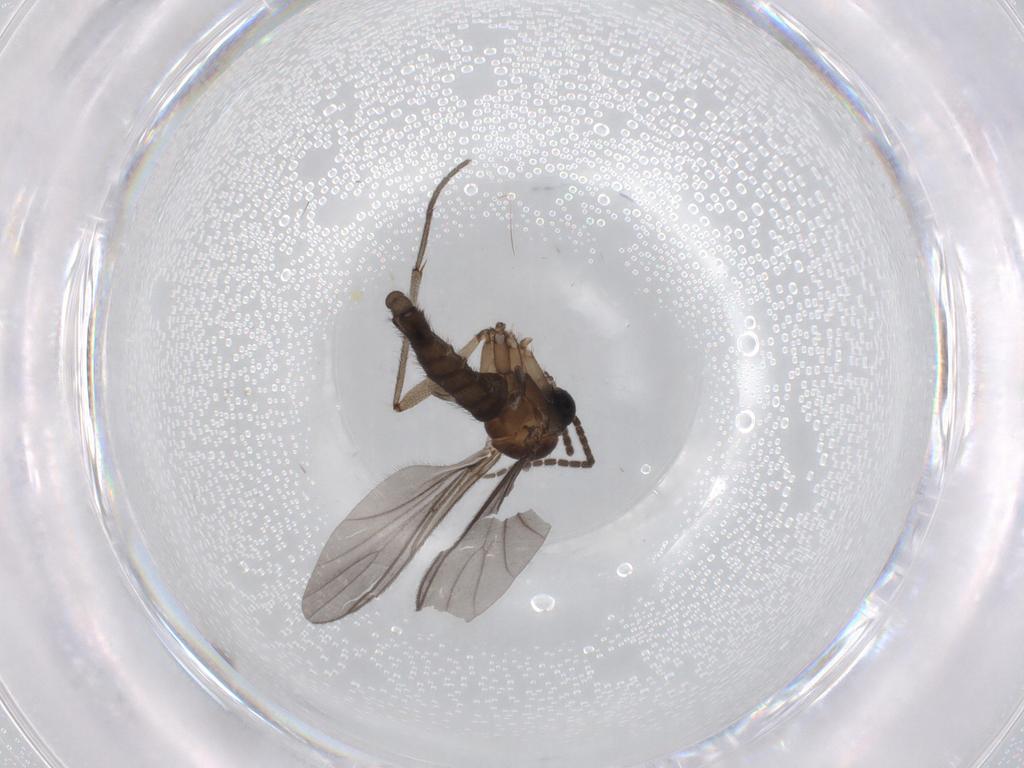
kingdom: Animalia
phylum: Arthropoda
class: Insecta
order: Diptera
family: Sciaridae
